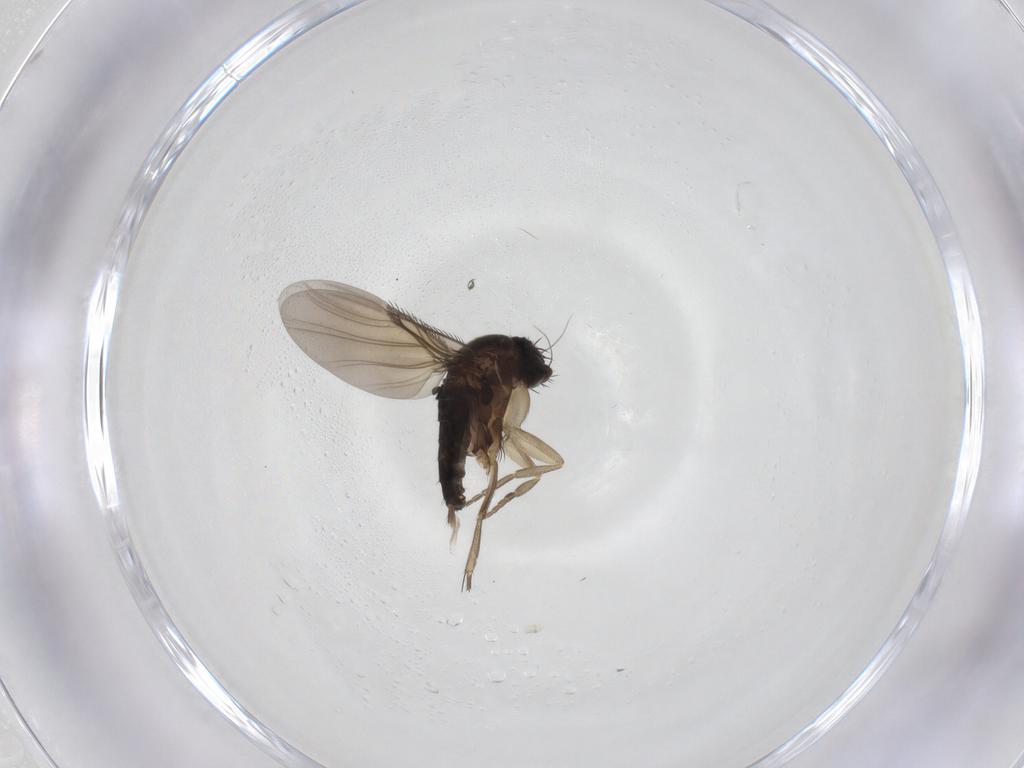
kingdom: Animalia
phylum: Arthropoda
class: Insecta
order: Diptera
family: Phoridae
